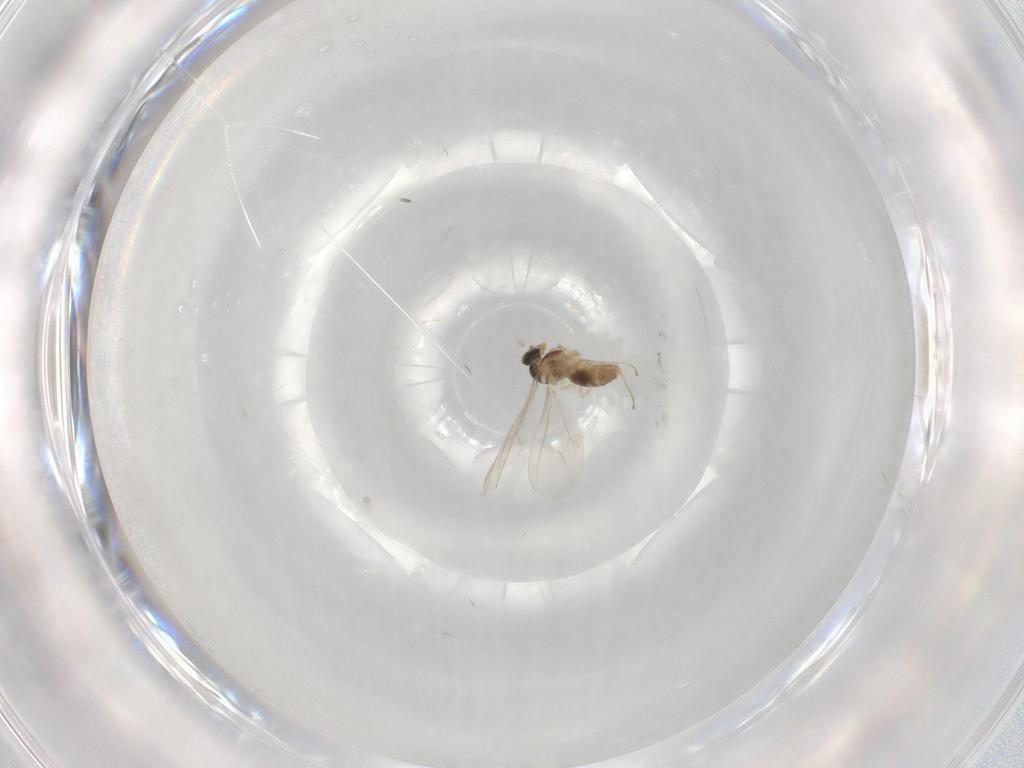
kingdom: Animalia
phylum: Arthropoda
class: Insecta
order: Diptera
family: Cecidomyiidae
